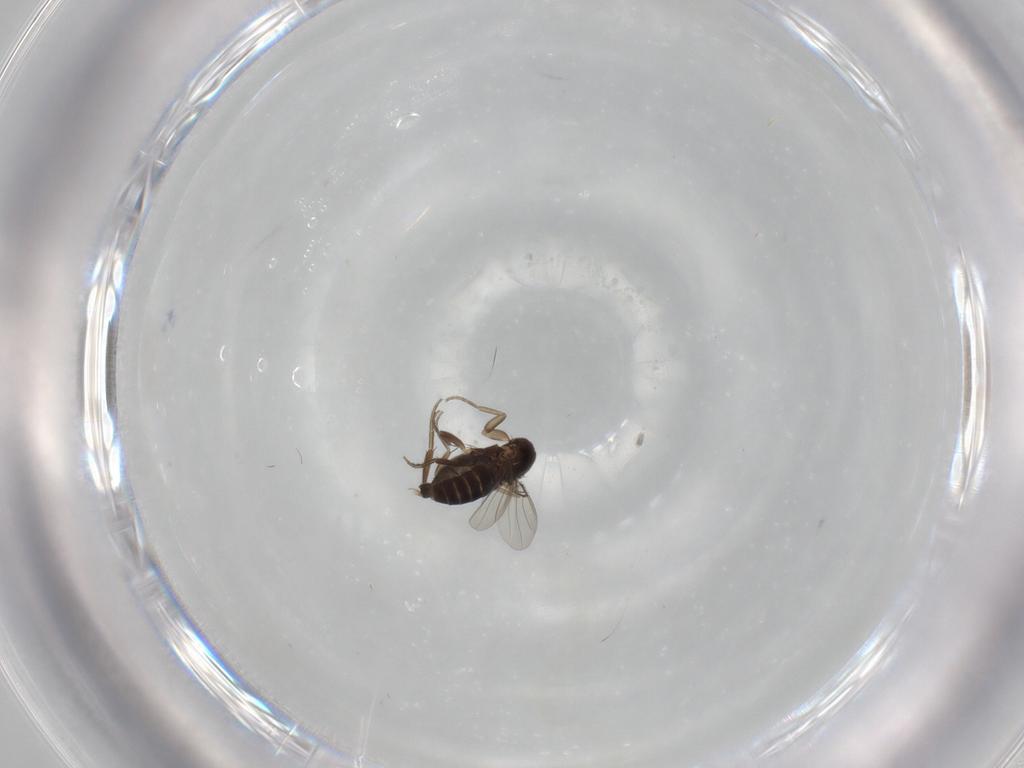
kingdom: Animalia
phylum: Arthropoda
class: Insecta
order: Diptera
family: Phoridae
